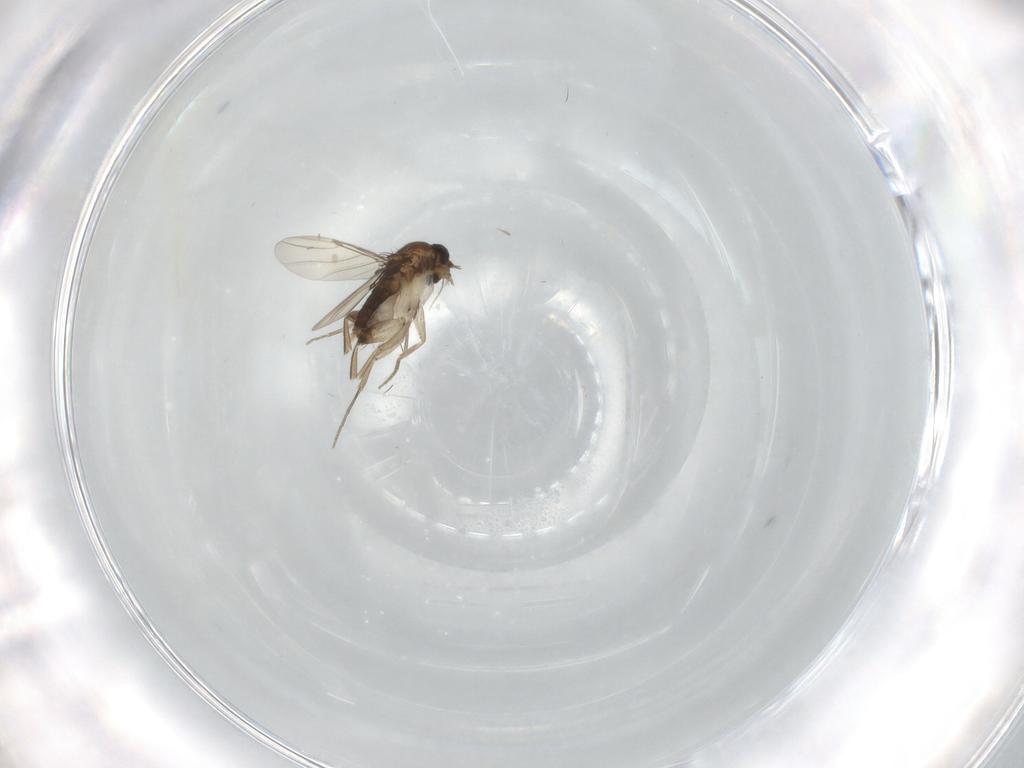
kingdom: Animalia
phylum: Arthropoda
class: Insecta
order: Diptera
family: Phoridae
